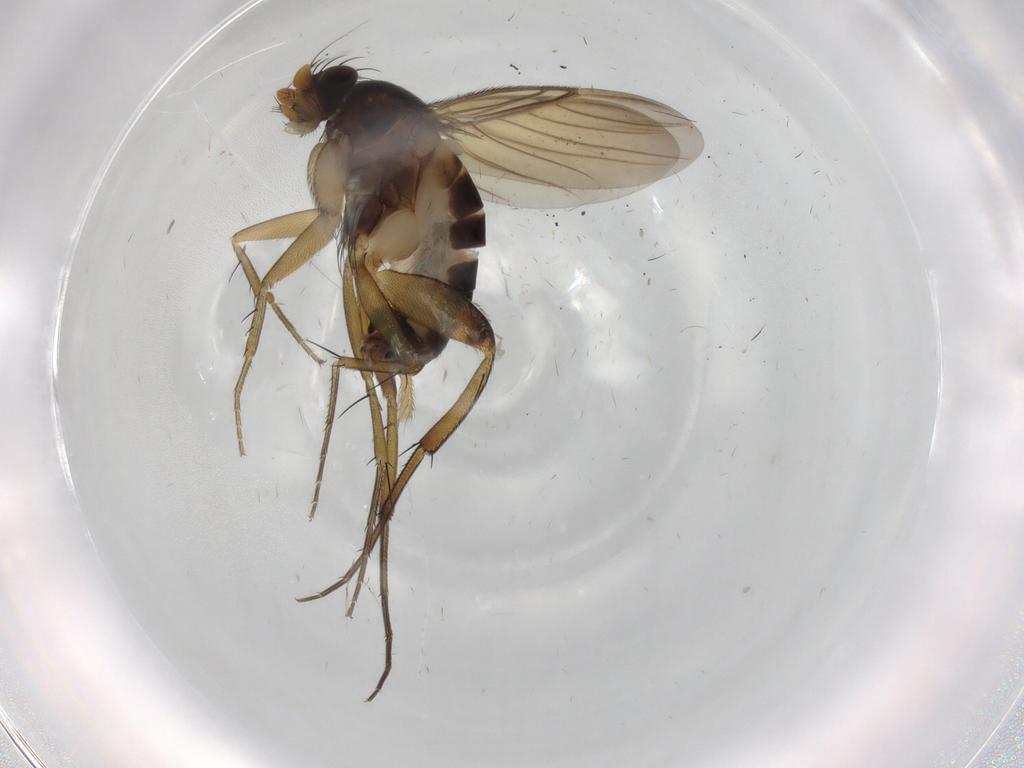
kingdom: Animalia
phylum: Arthropoda
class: Insecta
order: Diptera
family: Phoridae
